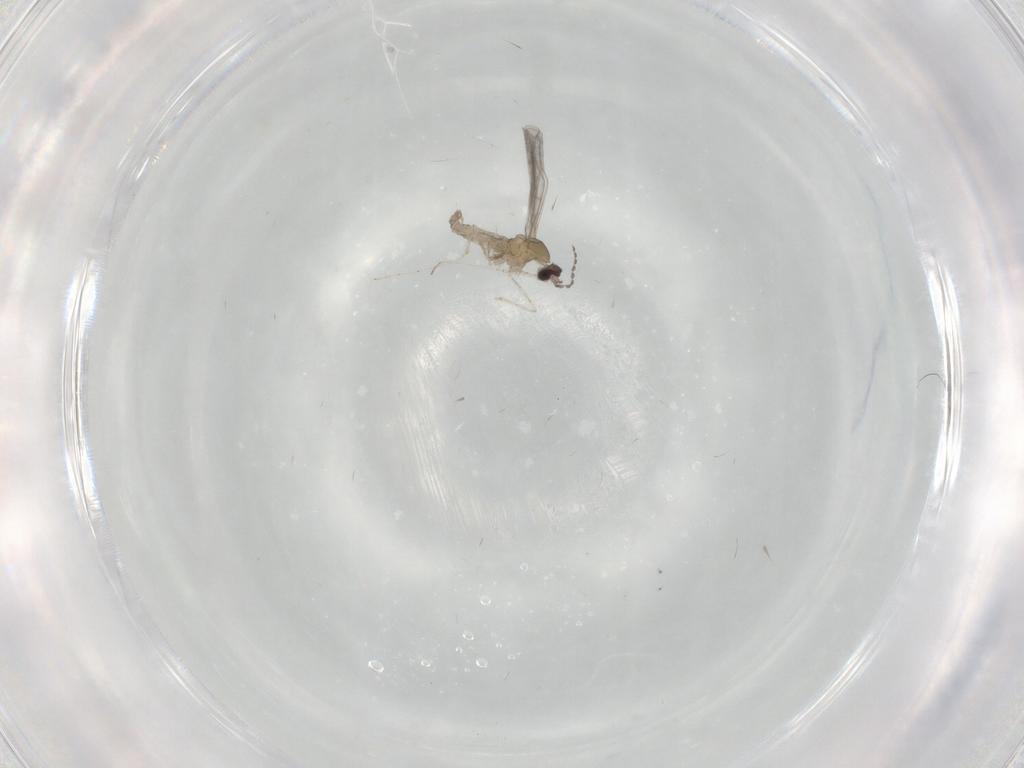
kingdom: Animalia
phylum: Arthropoda
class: Insecta
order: Diptera
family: Cecidomyiidae
